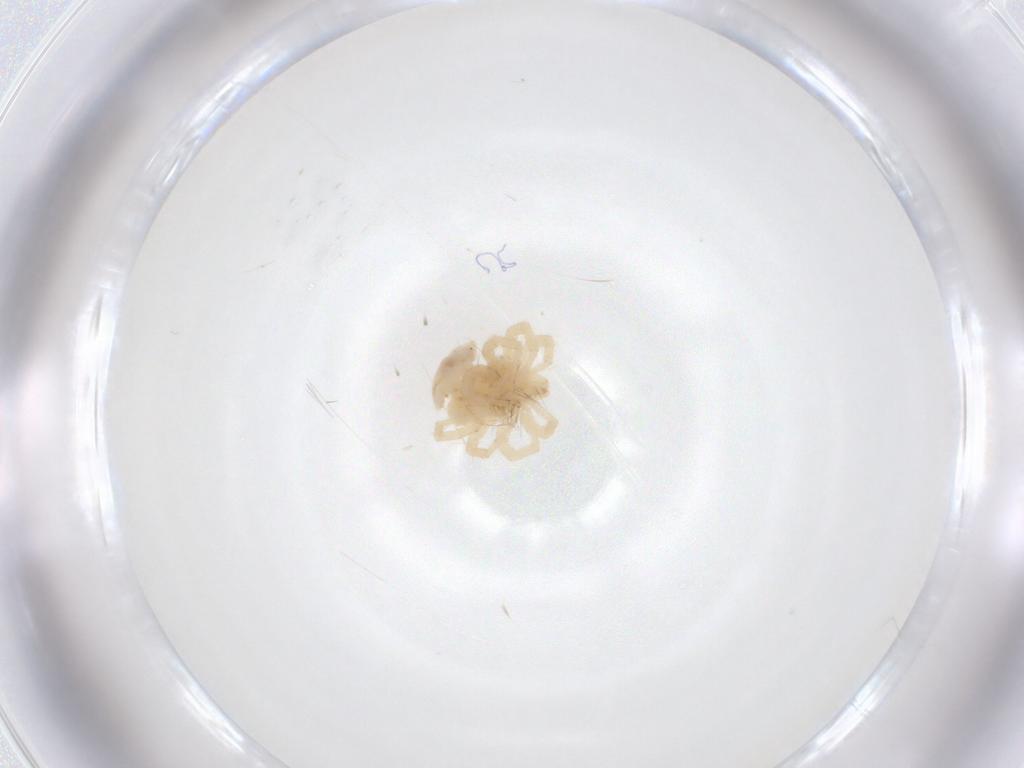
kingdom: Animalia
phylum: Arthropoda
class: Arachnida
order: Trombidiformes
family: Anystidae
